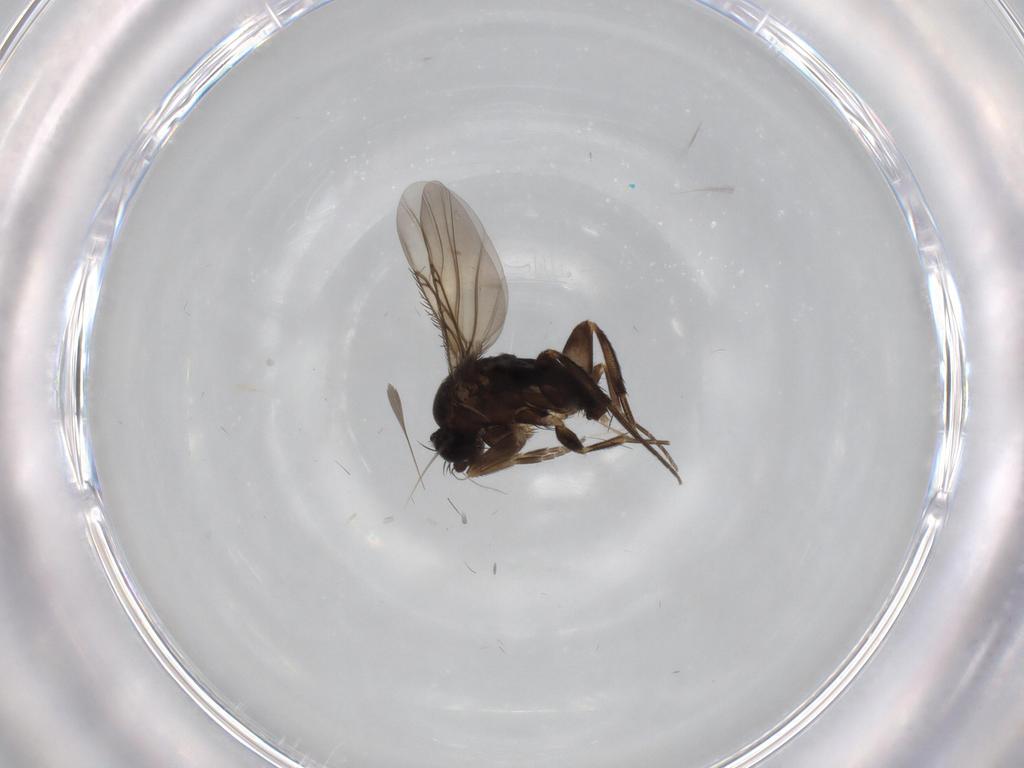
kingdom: Animalia
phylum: Arthropoda
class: Insecta
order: Diptera
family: Phoridae
